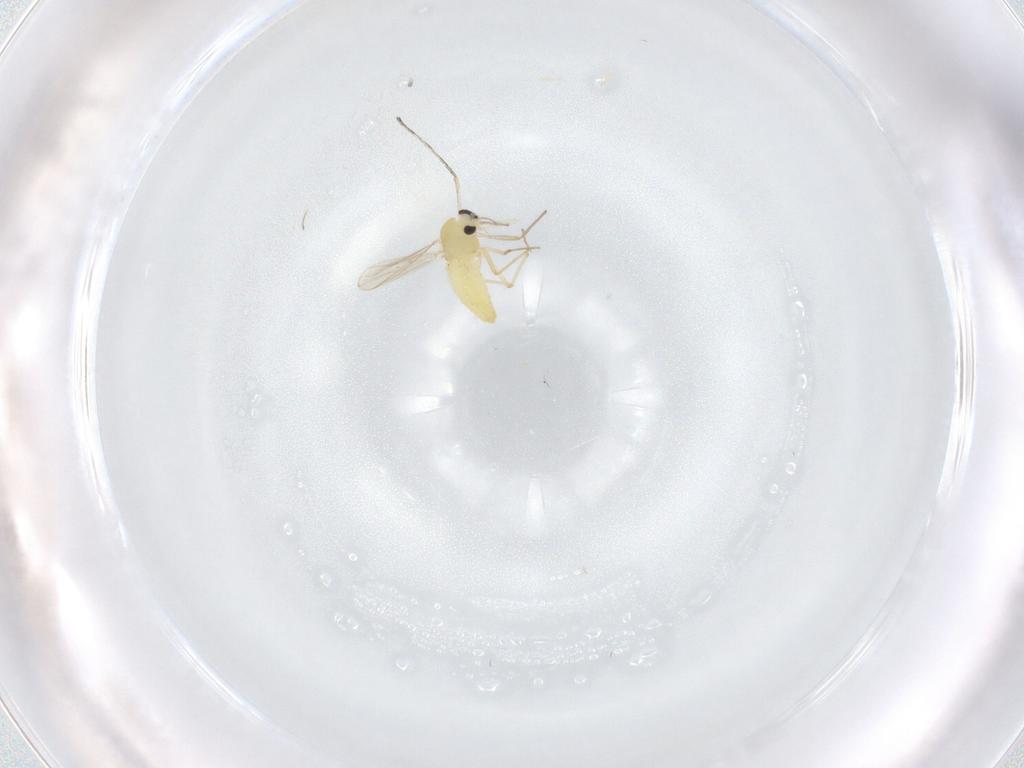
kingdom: Animalia
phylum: Arthropoda
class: Insecta
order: Diptera
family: Chironomidae
